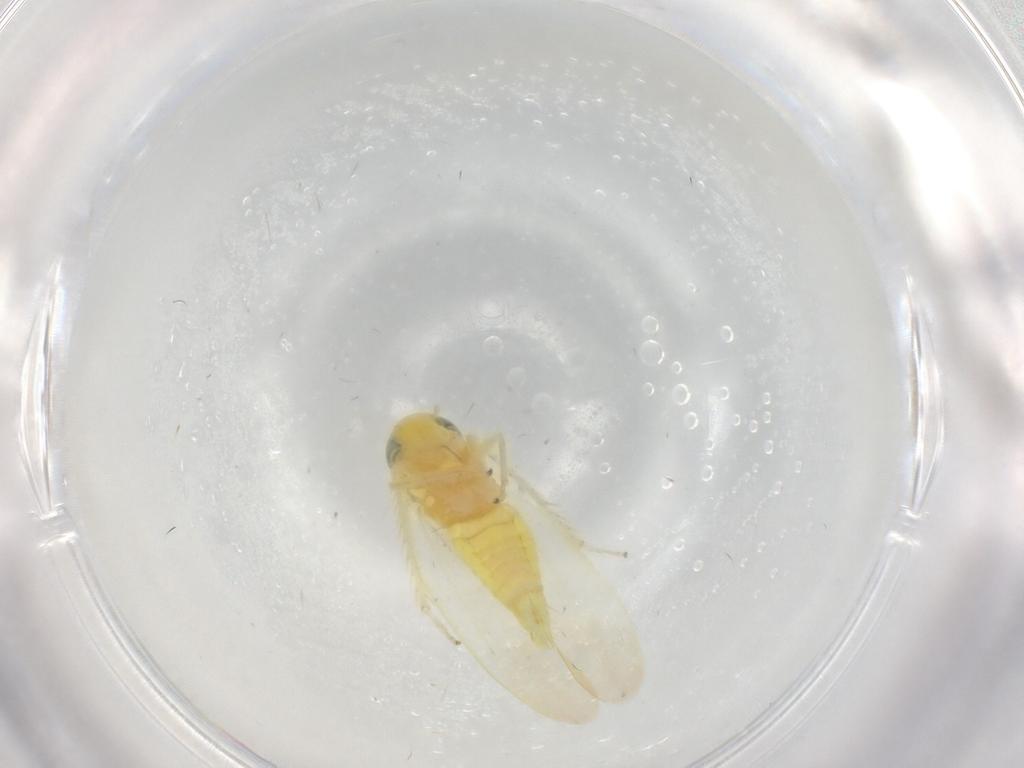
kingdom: Animalia
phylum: Arthropoda
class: Insecta
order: Hemiptera
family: Cicadellidae
